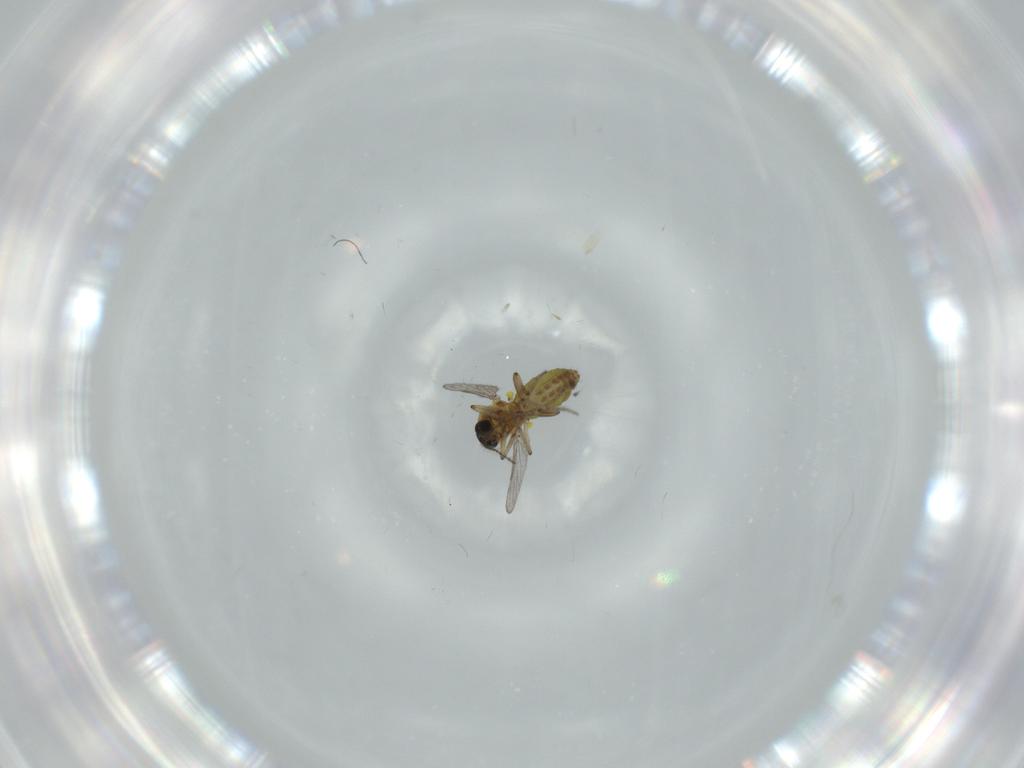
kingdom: Animalia
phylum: Arthropoda
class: Insecta
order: Diptera
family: Ceratopogonidae
